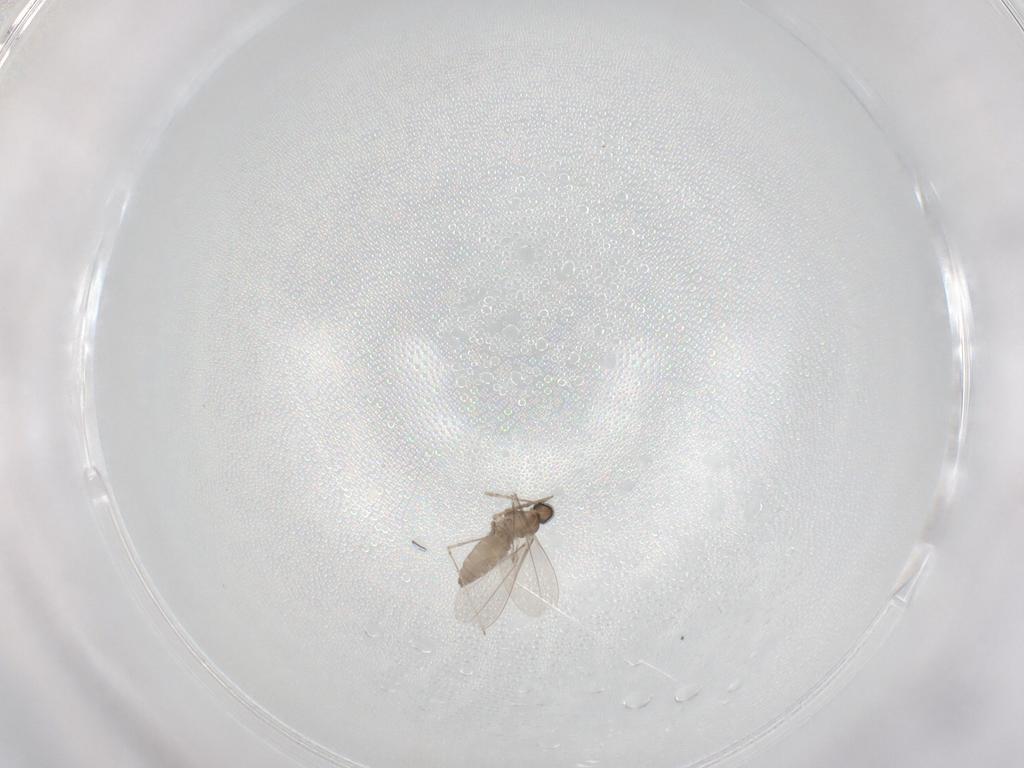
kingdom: Animalia
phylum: Arthropoda
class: Insecta
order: Diptera
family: Cecidomyiidae
